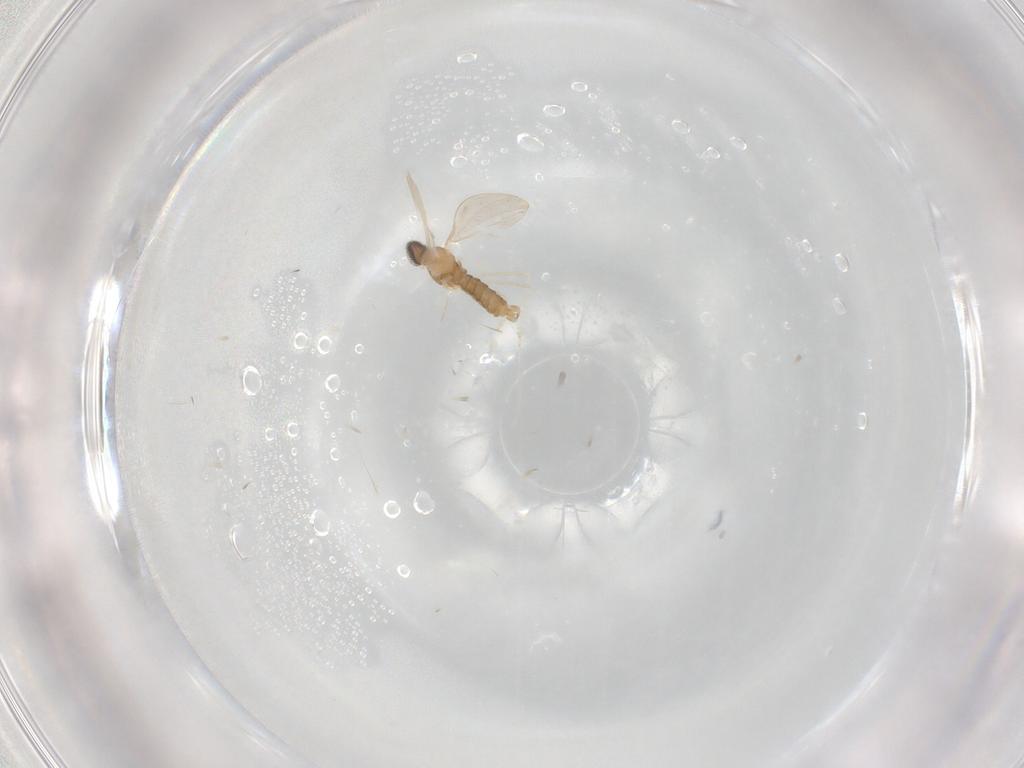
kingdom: Animalia
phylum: Arthropoda
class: Insecta
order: Diptera
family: Cecidomyiidae
